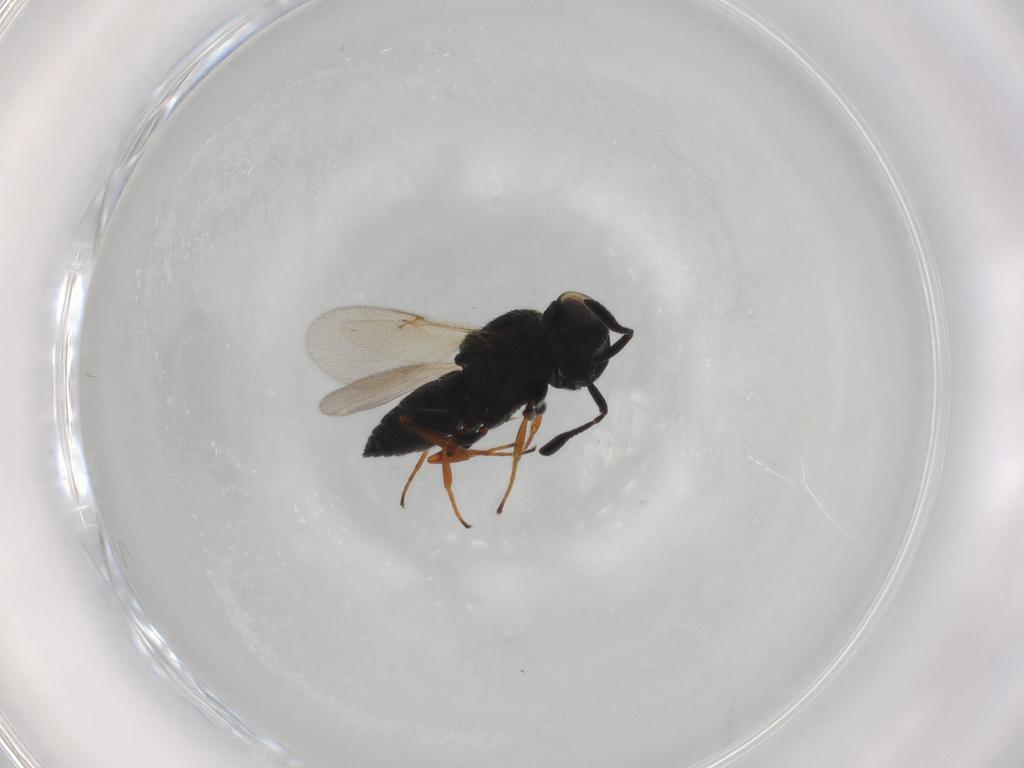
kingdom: Animalia
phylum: Arthropoda
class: Insecta
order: Hymenoptera
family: Scelionidae
